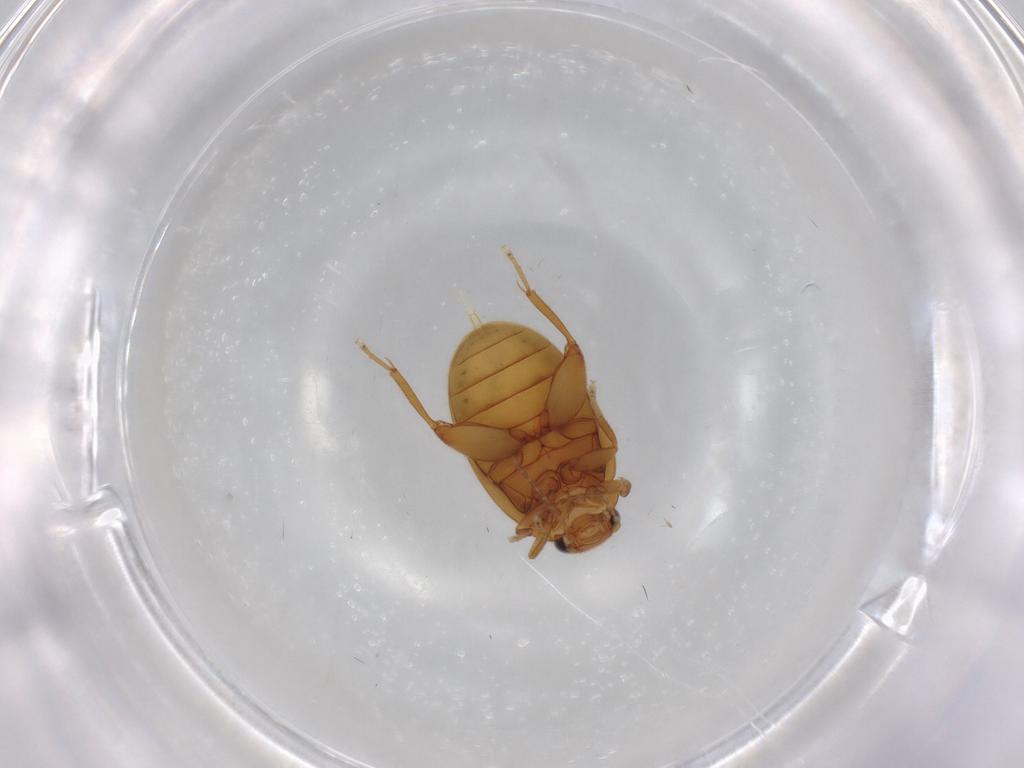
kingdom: Animalia
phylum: Arthropoda
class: Insecta
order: Coleoptera
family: Scirtidae
